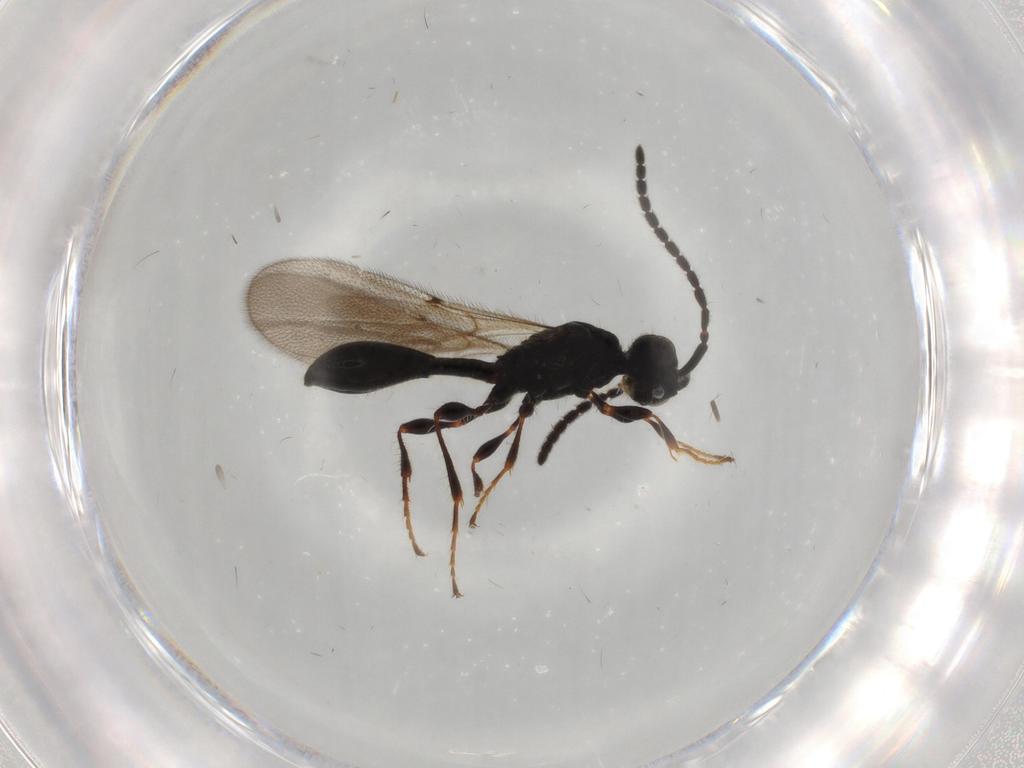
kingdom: Animalia
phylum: Arthropoda
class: Insecta
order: Hymenoptera
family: Diapriidae
